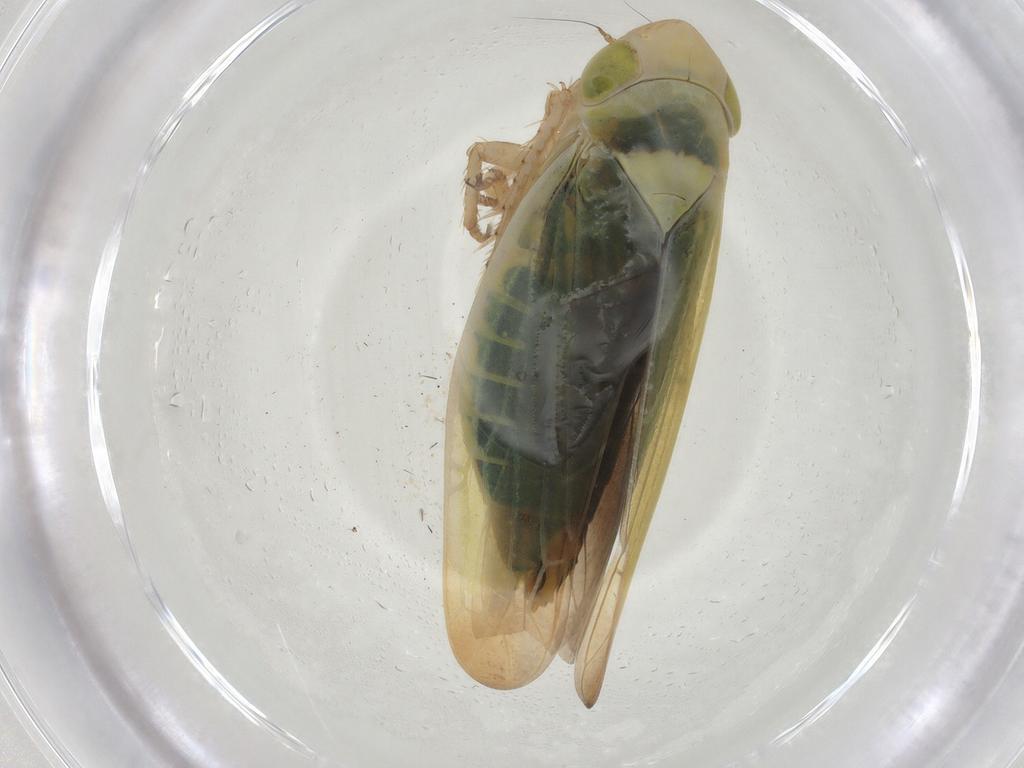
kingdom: Animalia
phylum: Arthropoda
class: Insecta
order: Hemiptera
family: Cicadellidae
